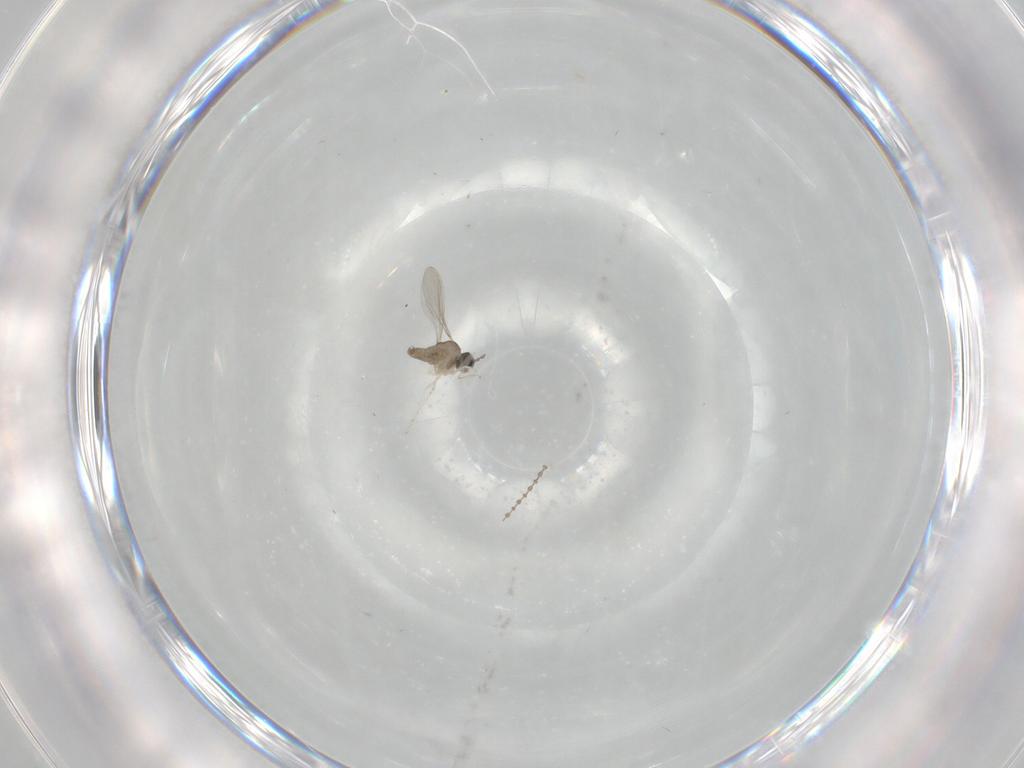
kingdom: Animalia
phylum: Arthropoda
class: Insecta
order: Diptera
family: Cecidomyiidae
